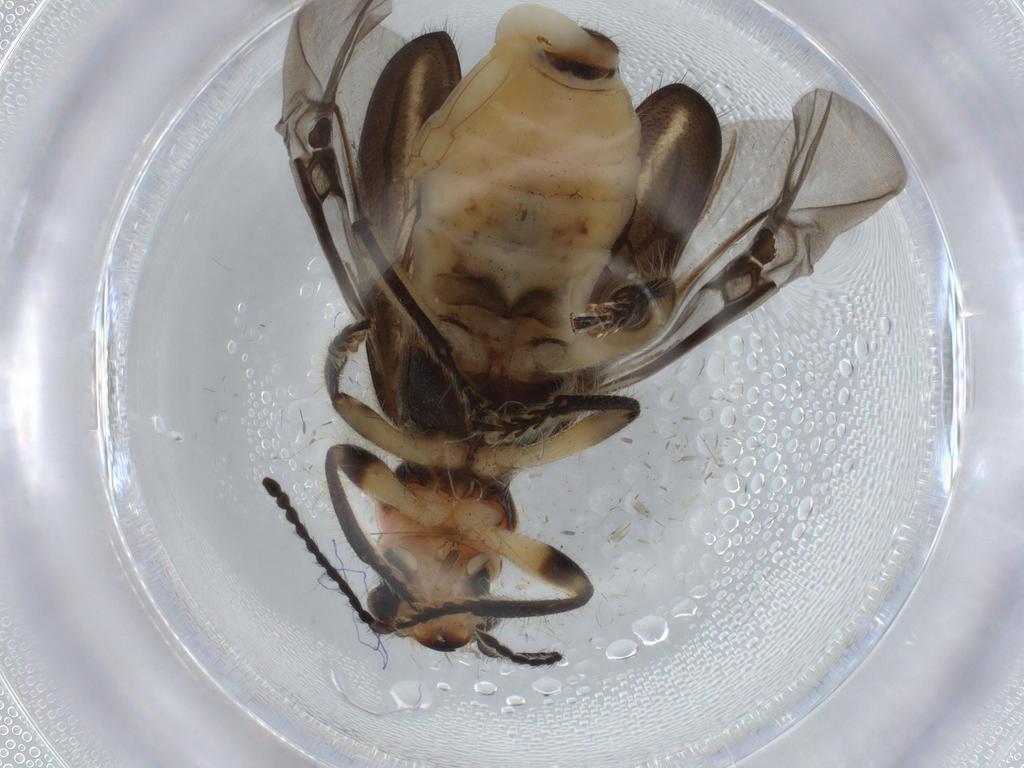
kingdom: Animalia
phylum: Arthropoda
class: Insecta
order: Coleoptera
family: Cleridae
